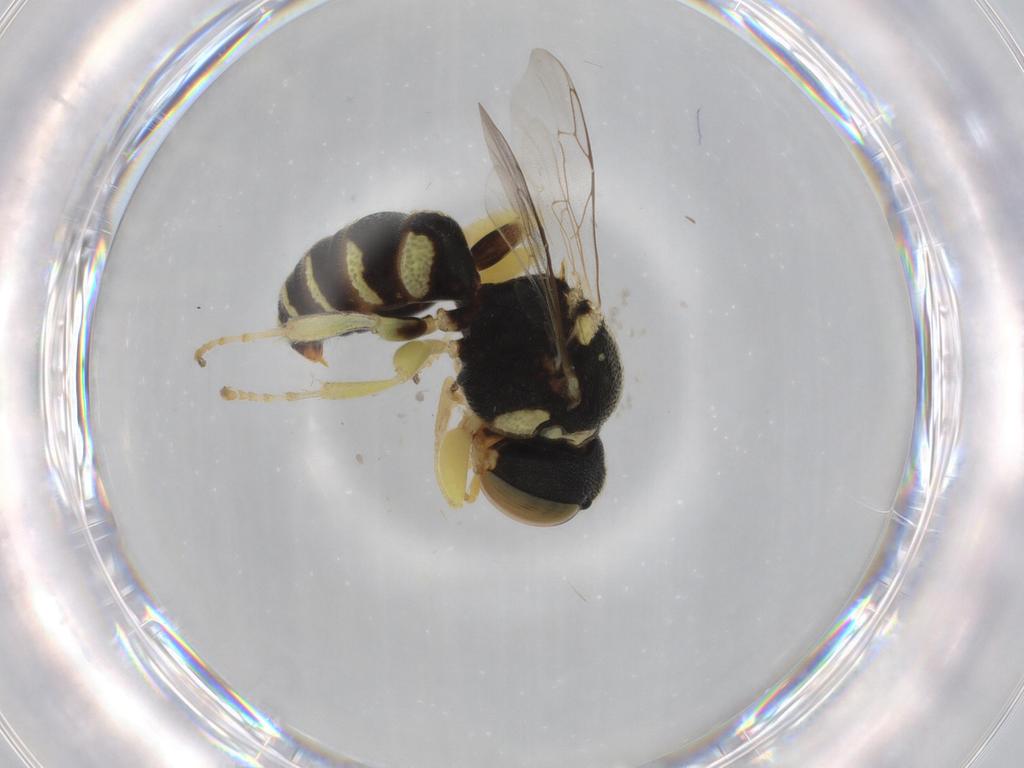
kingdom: Animalia
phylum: Arthropoda
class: Insecta
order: Hymenoptera
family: Crabronidae
